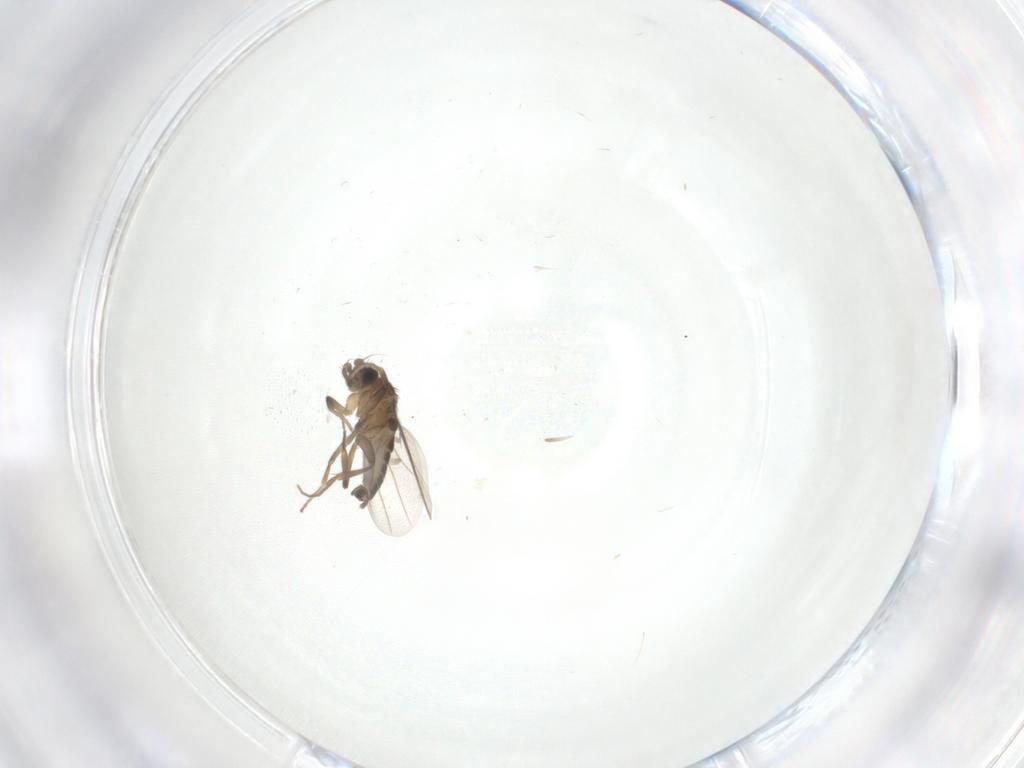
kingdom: Animalia
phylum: Arthropoda
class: Insecta
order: Diptera
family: Phoridae
